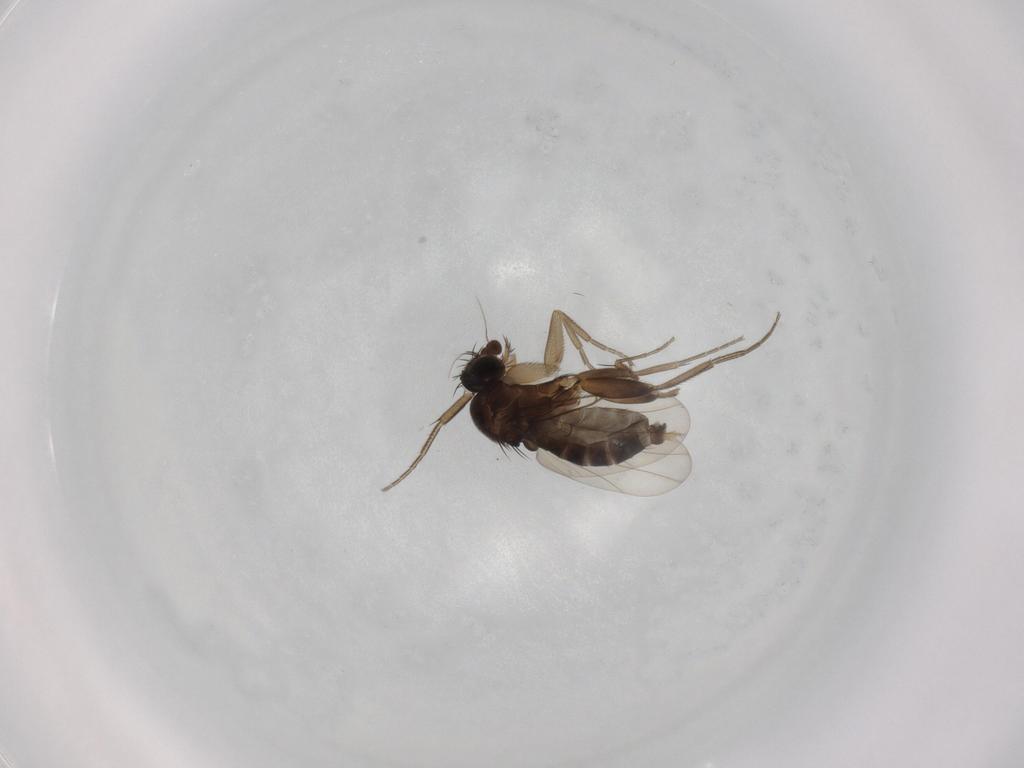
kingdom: Animalia
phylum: Arthropoda
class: Insecta
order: Diptera
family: Phoridae
